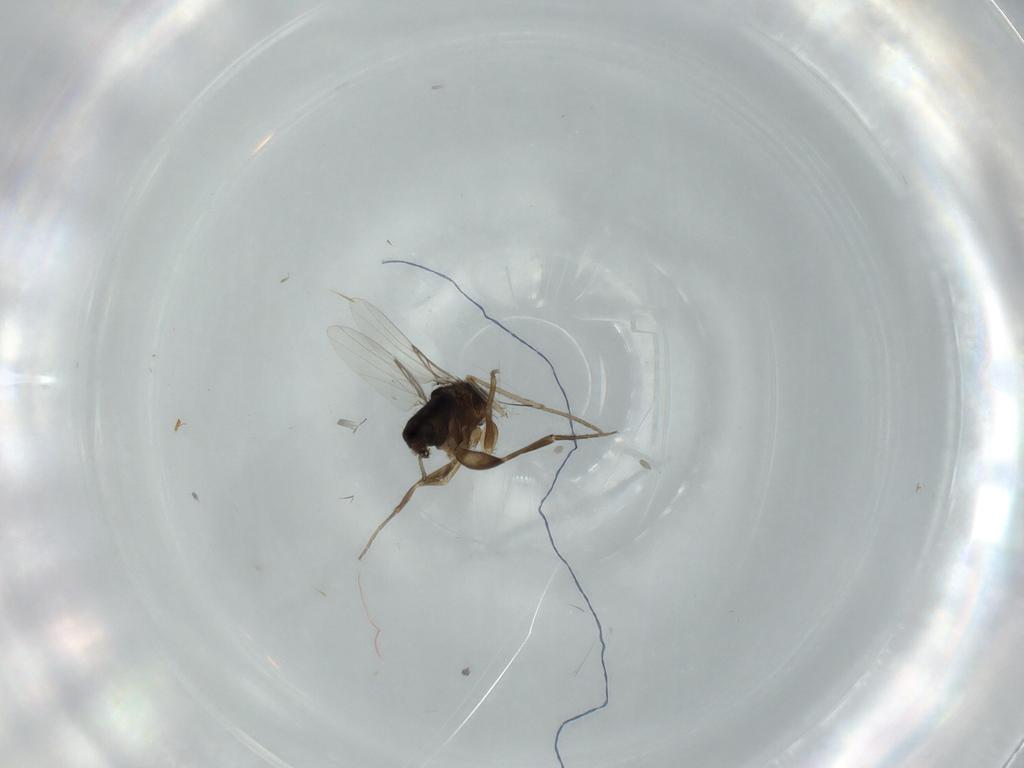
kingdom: Animalia
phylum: Arthropoda
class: Insecta
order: Diptera
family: Phoridae
